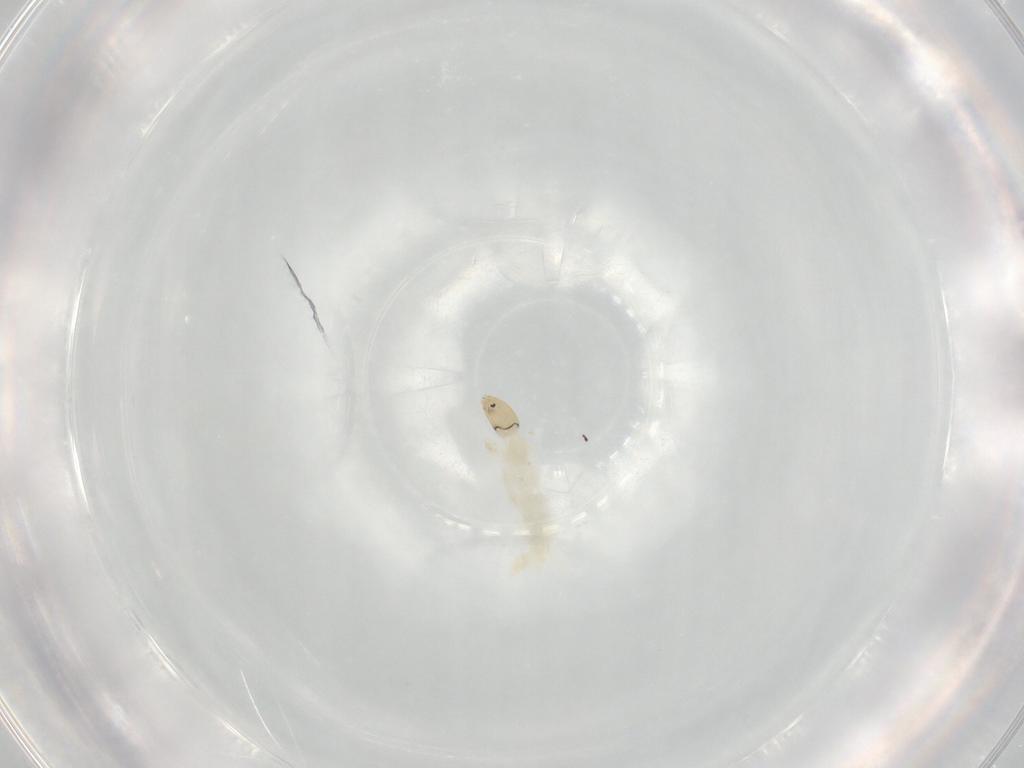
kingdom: Animalia
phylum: Arthropoda
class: Insecta
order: Diptera
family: Chironomidae
